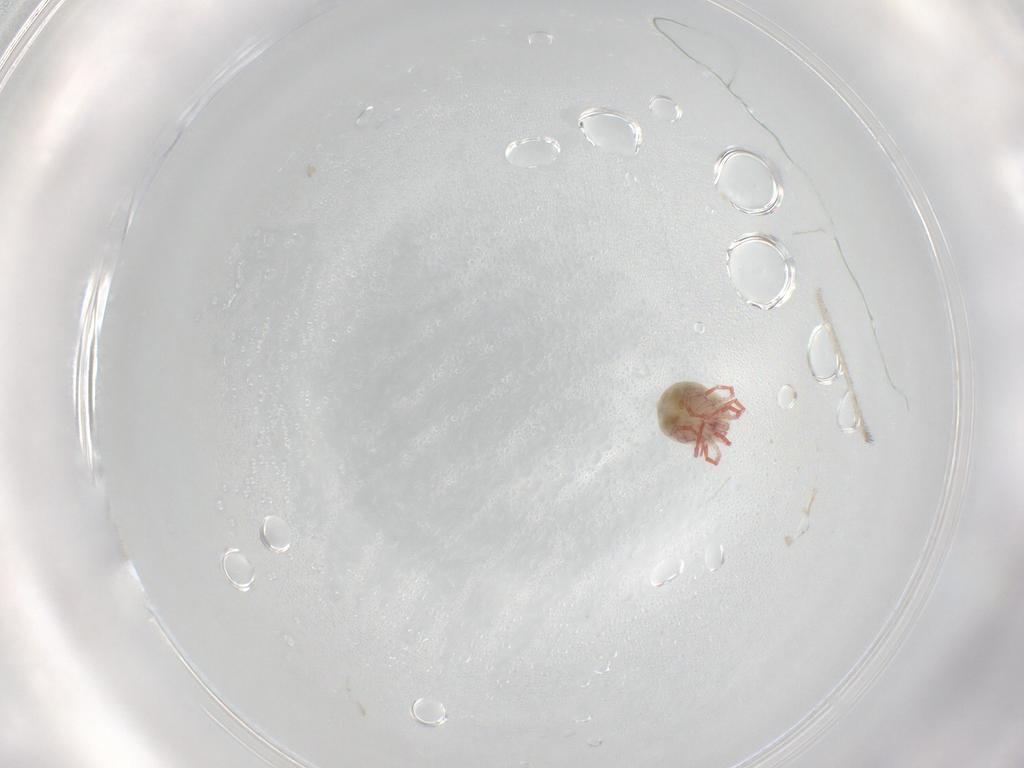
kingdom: Animalia
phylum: Arthropoda
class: Arachnida
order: Trombidiformes
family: Pionidae
